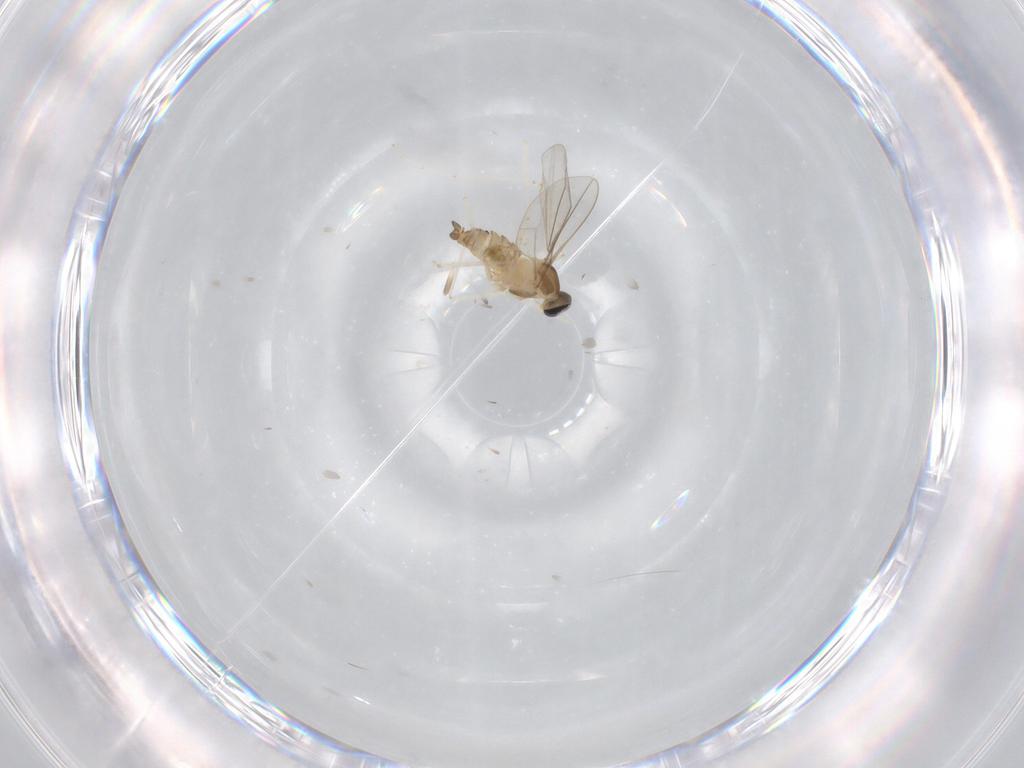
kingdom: Animalia
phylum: Arthropoda
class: Insecta
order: Diptera
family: Cecidomyiidae
